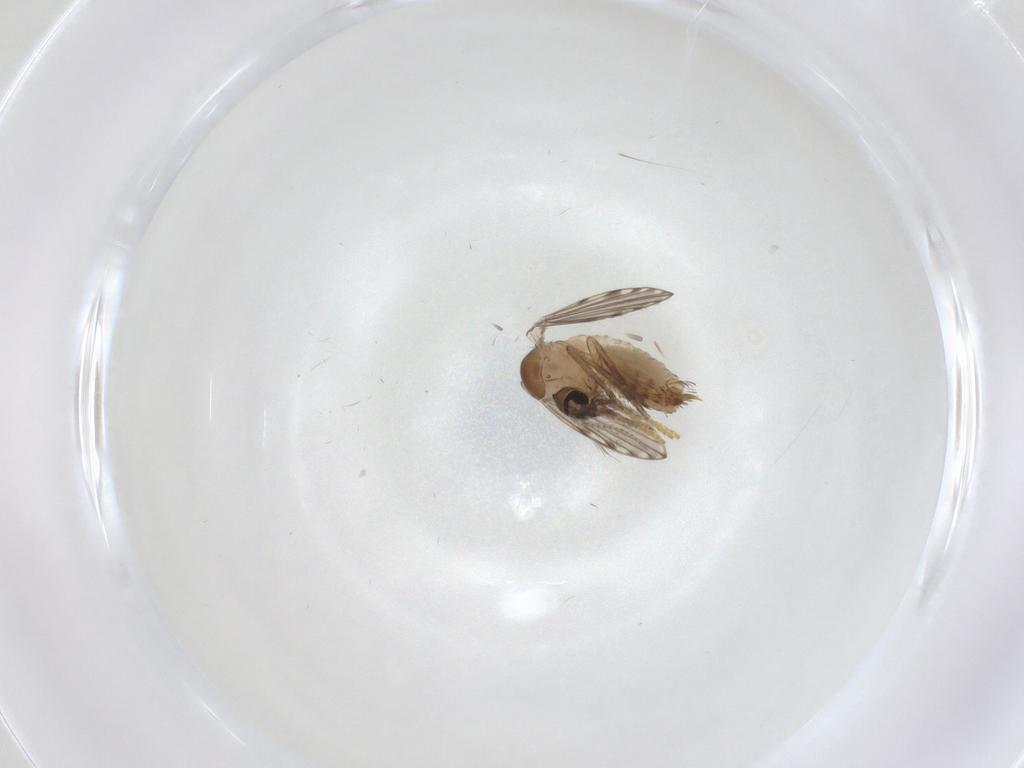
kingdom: Animalia
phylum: Arthropoda
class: Insecta
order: Diptera
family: Psychodidae
